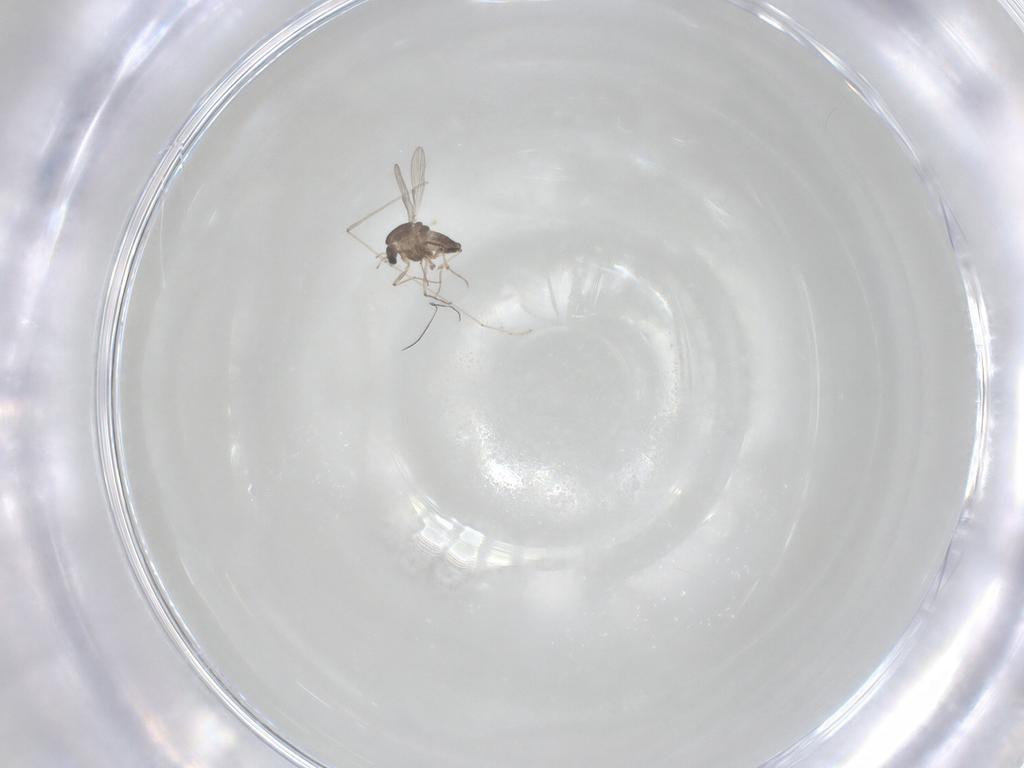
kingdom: Animalia
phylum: Arthropoda
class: Insecta
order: Diptera
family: Chironomidae
